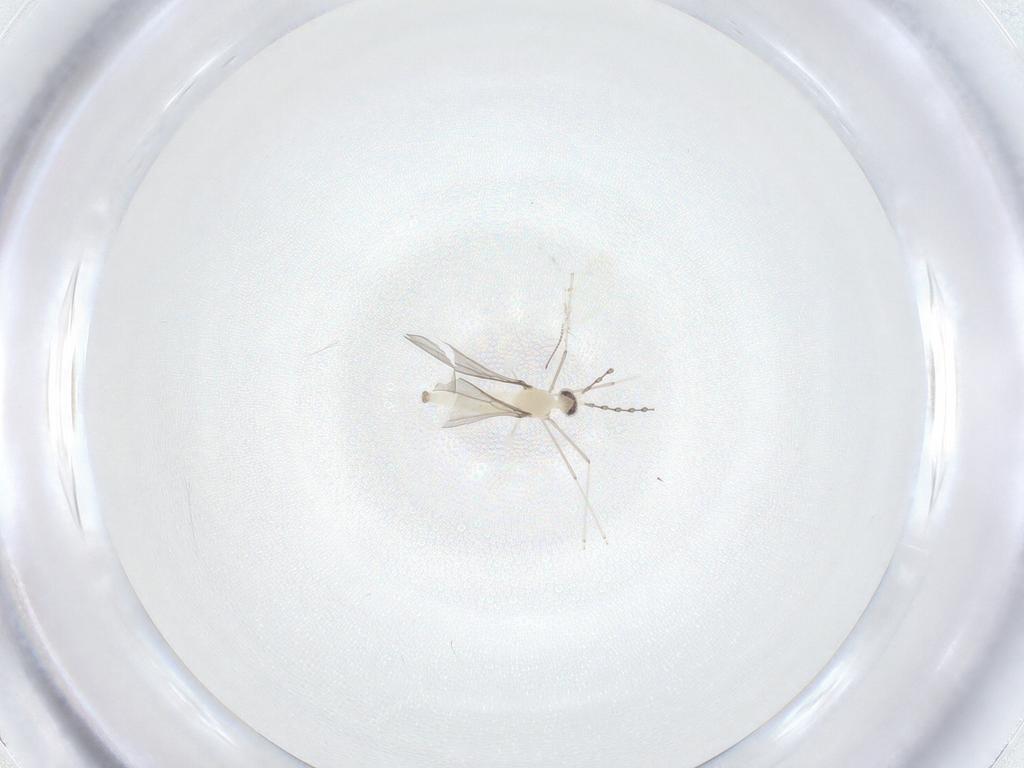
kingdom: Animalia
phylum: Arthropoda
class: Insecta
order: Diptera
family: Cecidomyiidae
